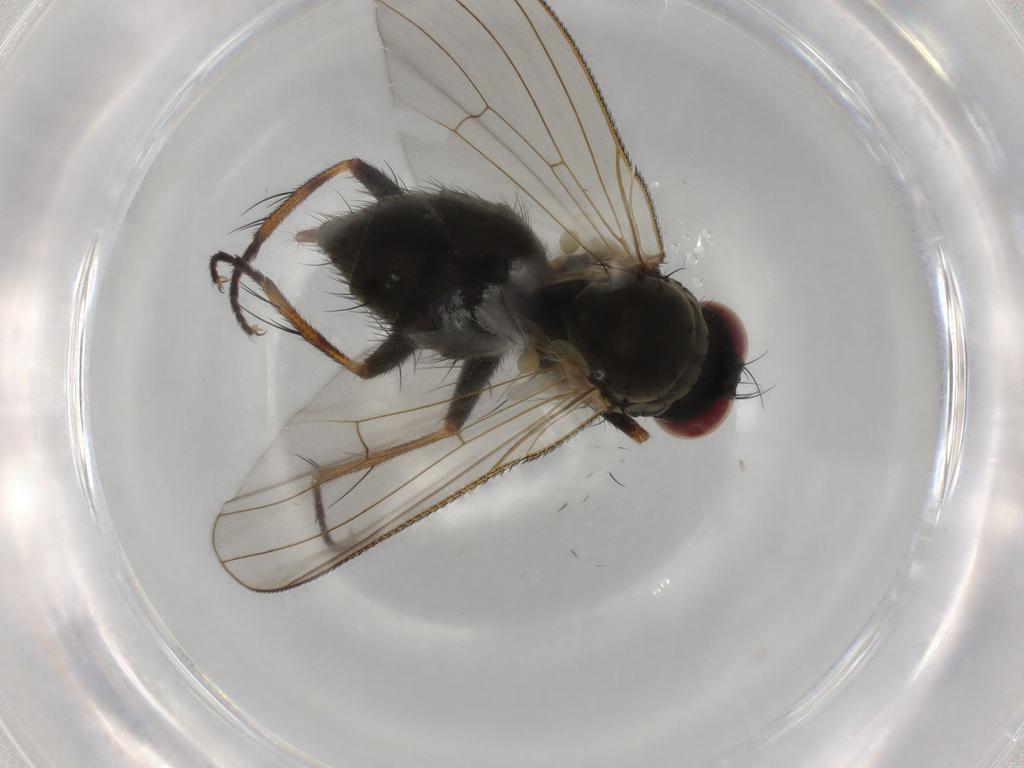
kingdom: Animalia
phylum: Arthropoda
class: Insecta
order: Diptera
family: Muscidae
